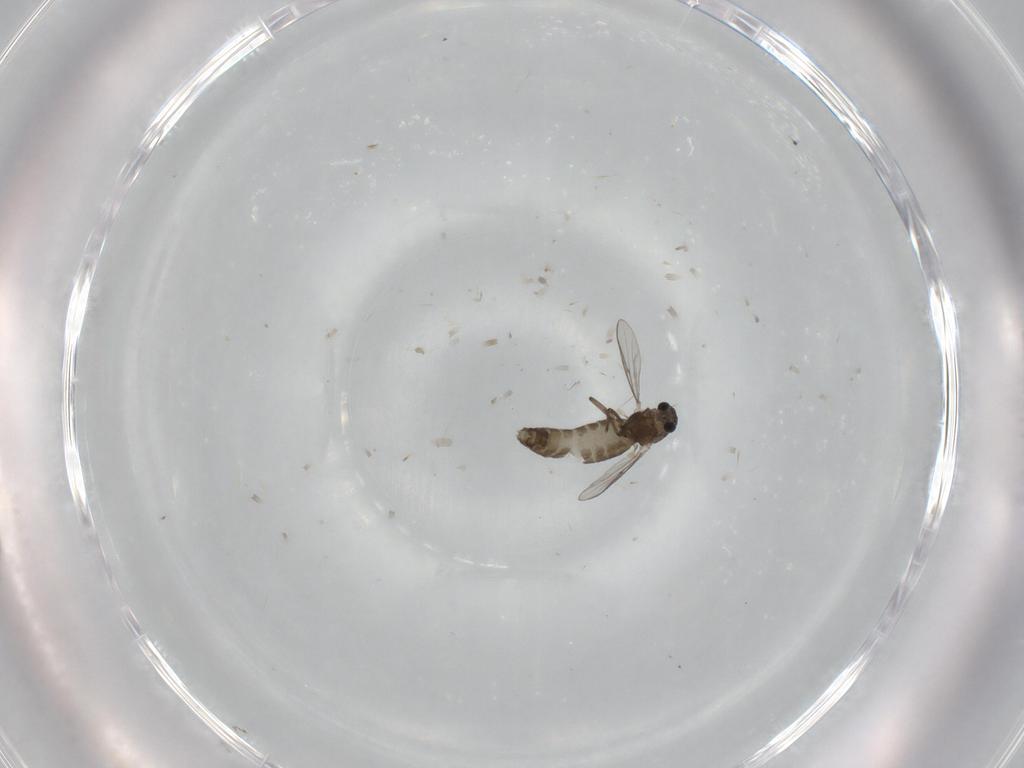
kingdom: Animalia
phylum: Arthropoda
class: Insecta
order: Diptera
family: Chironomidae
